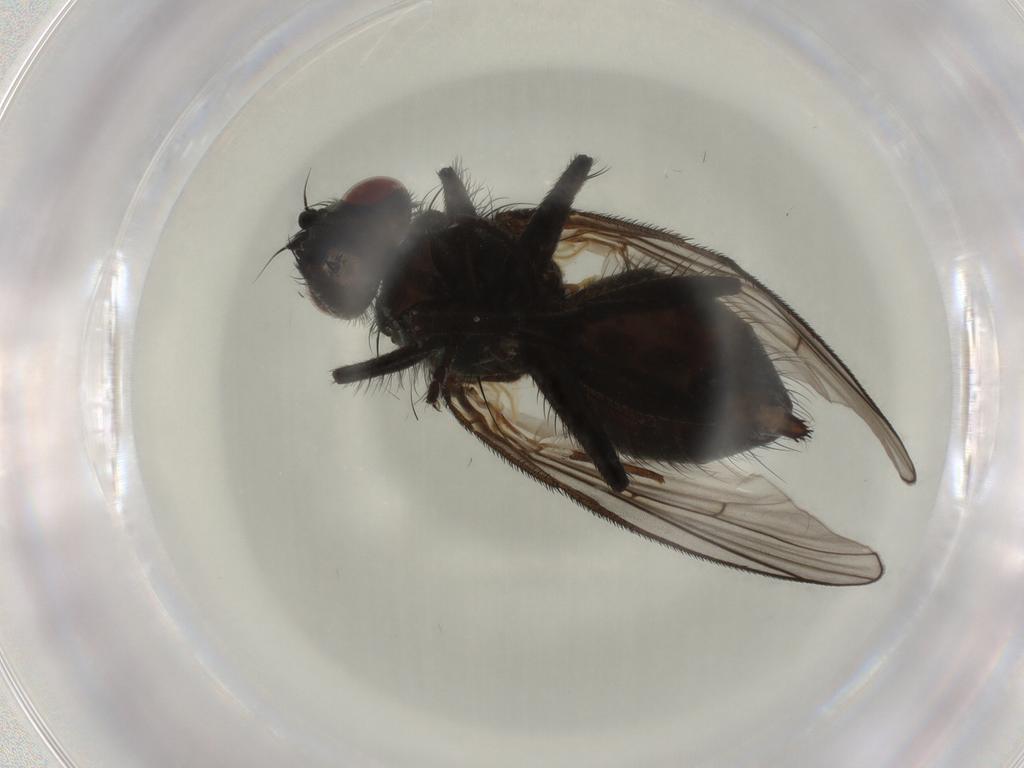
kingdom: Animalia
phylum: Arthropoda
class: Insecta
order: Diptera
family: Muscidae
